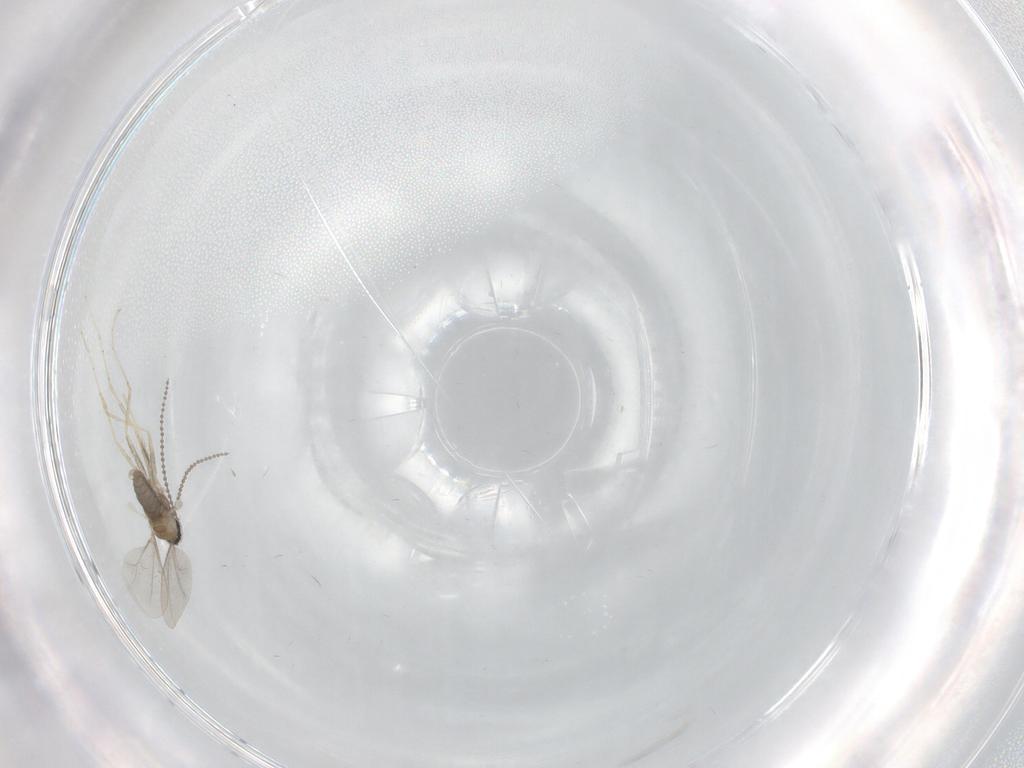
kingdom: Animalia
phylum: Arthropoda
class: Insecta
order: Diptera
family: Chironomidae
